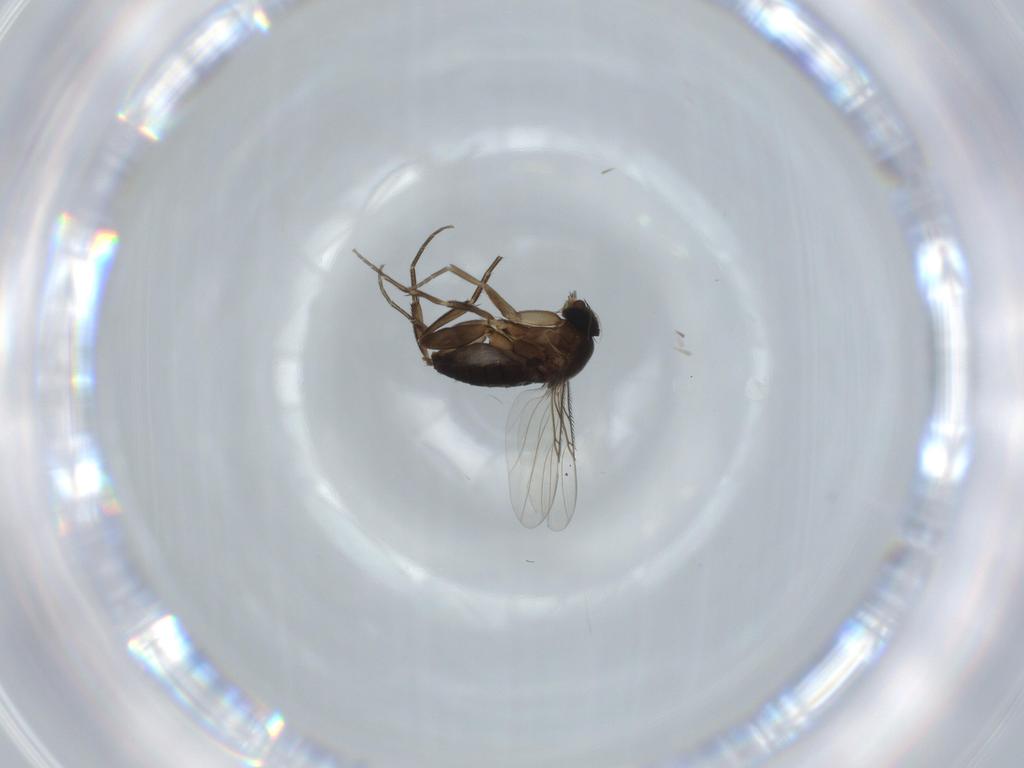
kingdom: Animalia
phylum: Arthropoda
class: Insecta
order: Diptera
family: Phoridae
